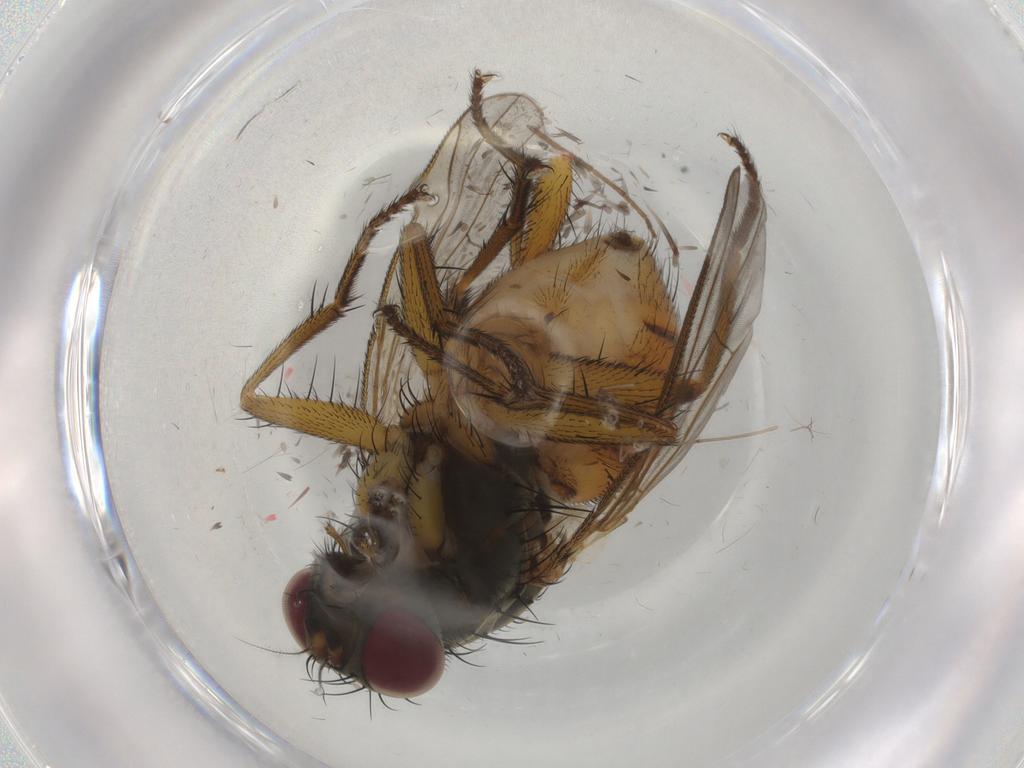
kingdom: Animalia
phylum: Arthropoda
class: Insecta
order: Diptera
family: Muscidae
